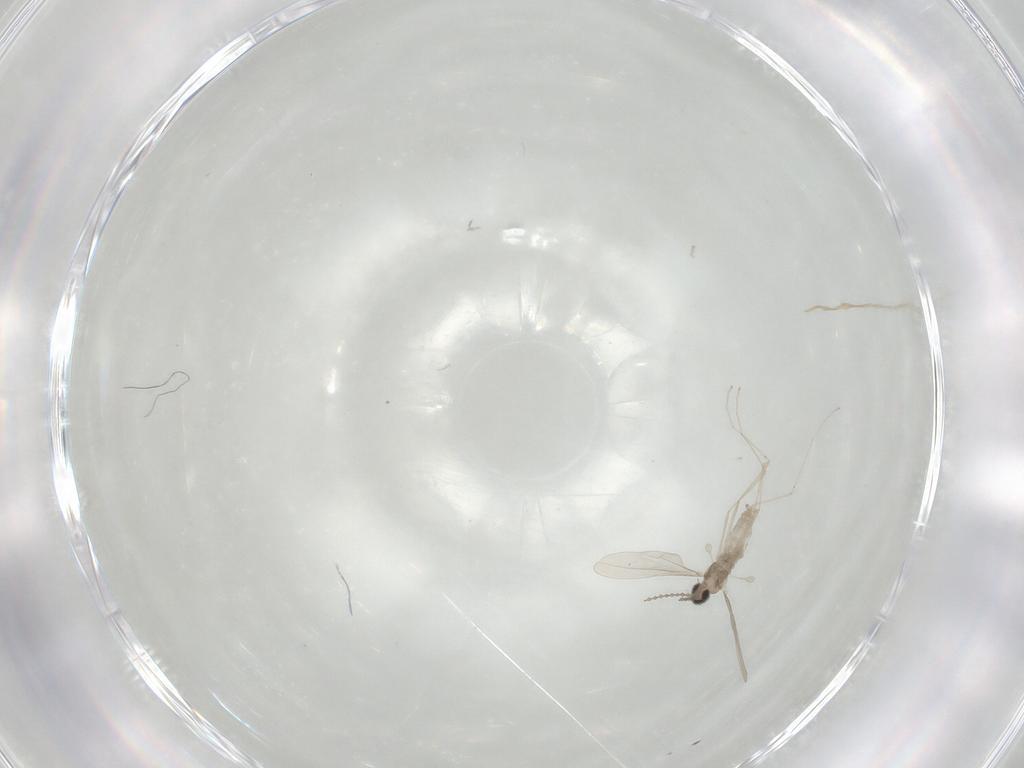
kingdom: Animalia
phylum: Arthropoda
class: Insecta
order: Diptera
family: Cecidomyiidae
